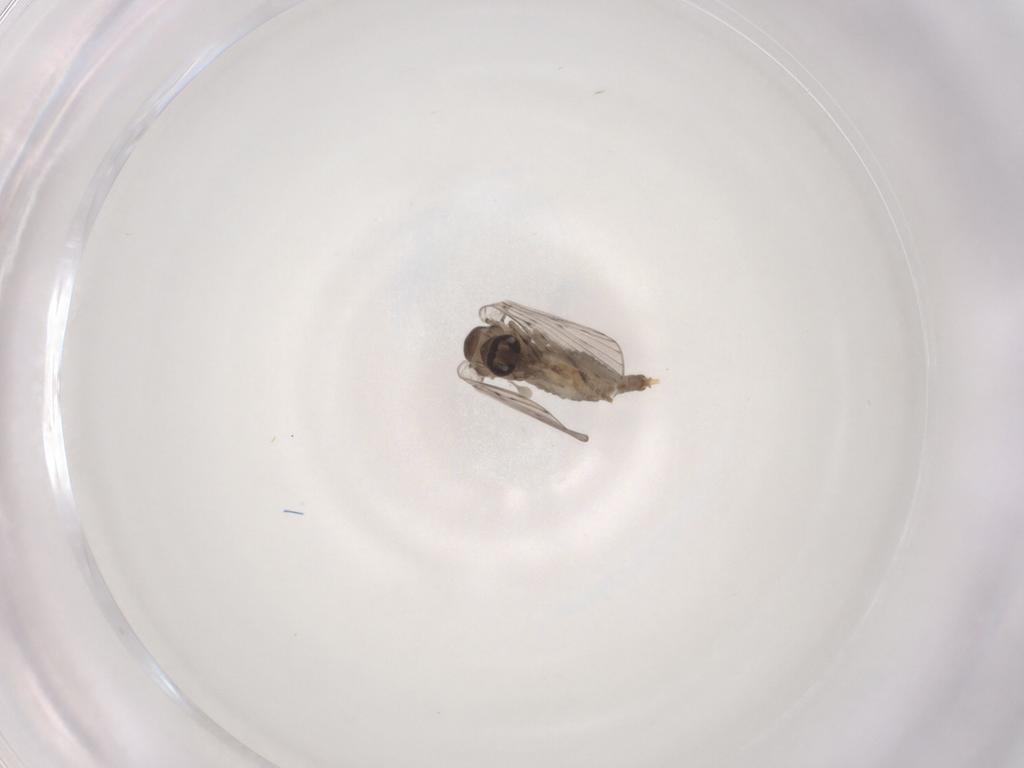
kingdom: Animalia
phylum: Arthropoda
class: Insecta
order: Diptera
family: Psychodidae
